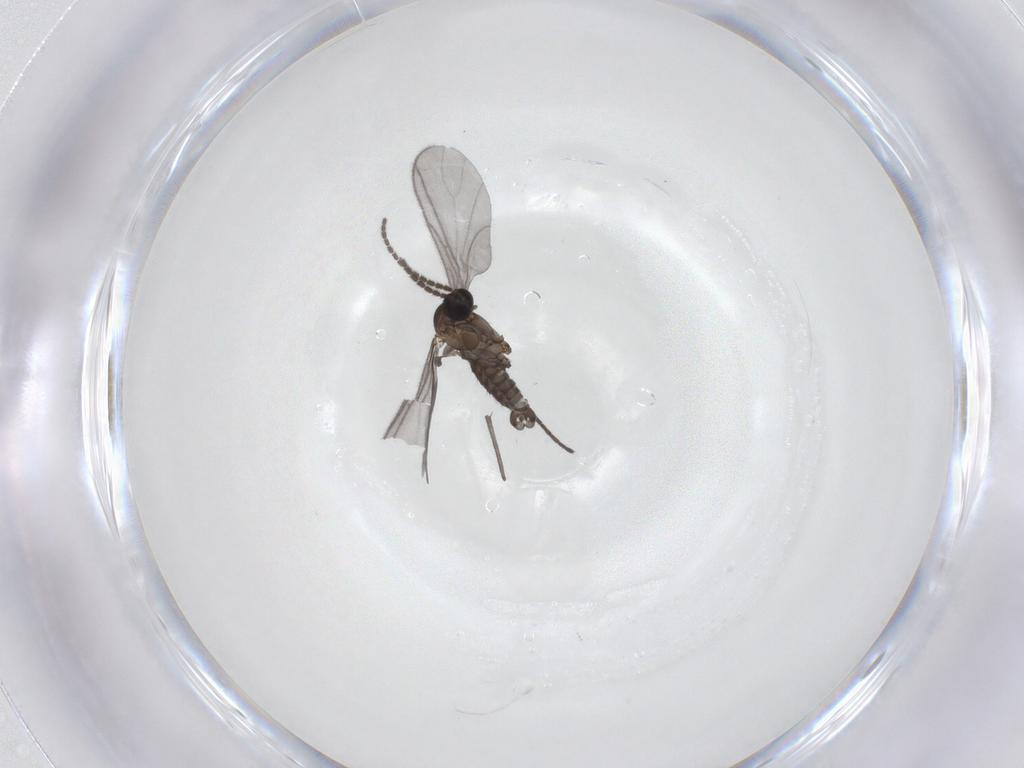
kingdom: Animalia
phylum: Arthropoda
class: Insecta
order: Diptera
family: Sciaridae
